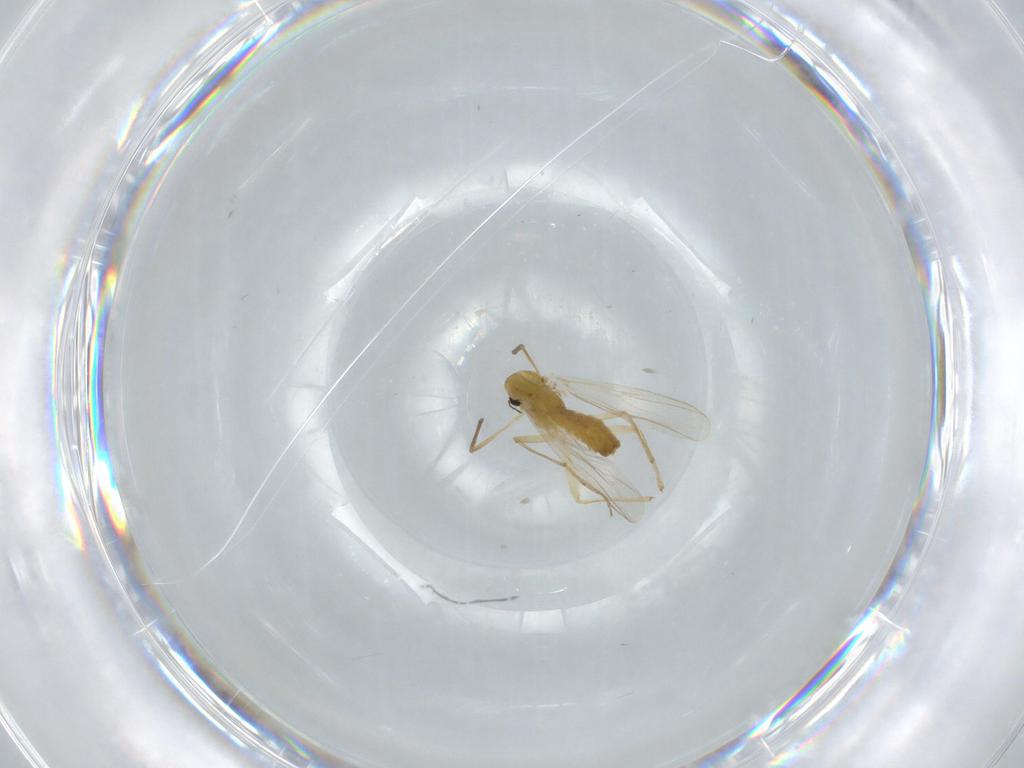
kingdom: Animalia
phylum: Arthropoda
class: Insecta
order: Diptera
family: Chironomidae
